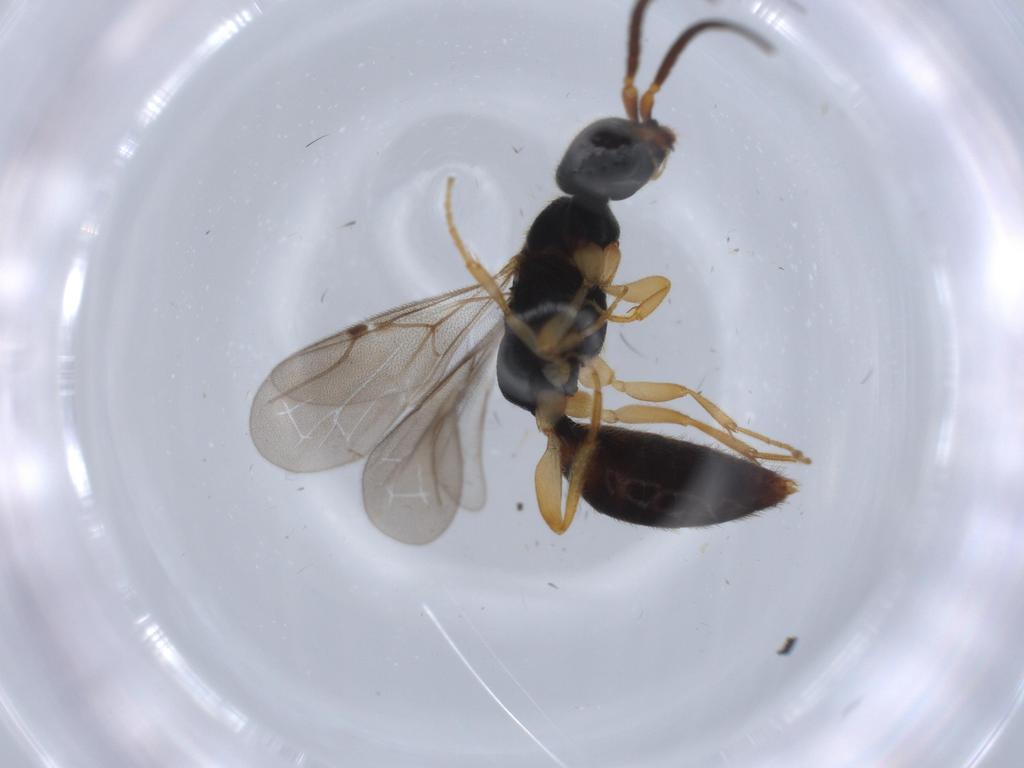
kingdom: Animalia
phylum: Arthropoda
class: Insecta
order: Hymenoptera
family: Bethylidae
